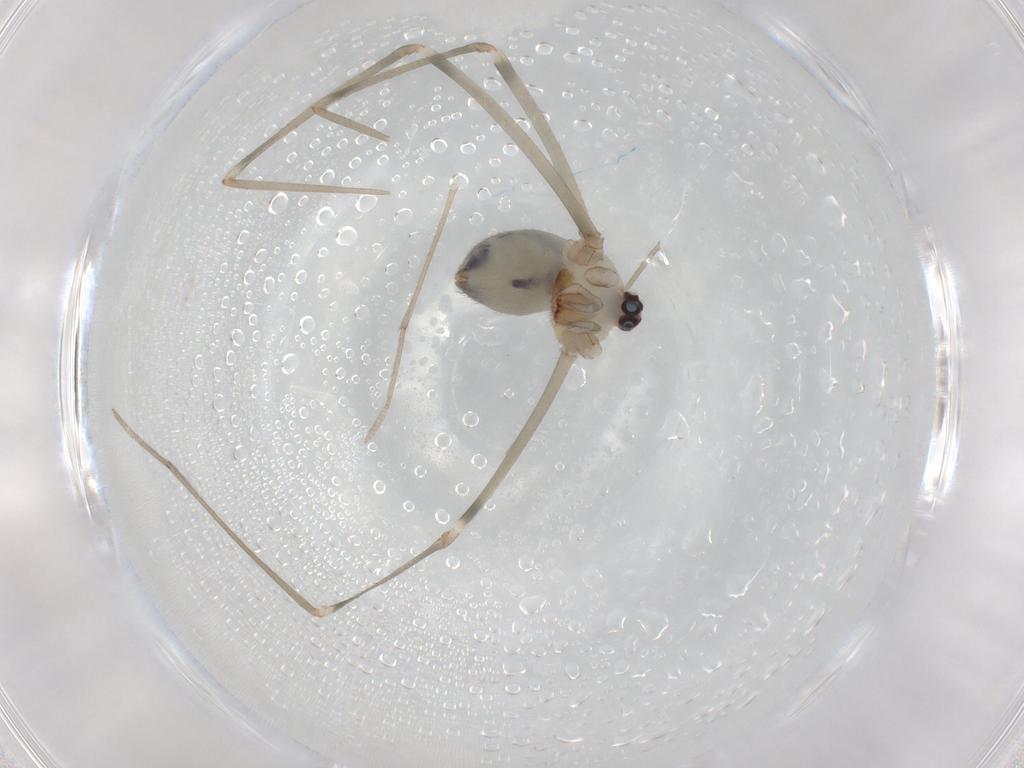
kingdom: Animalia
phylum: Arthropoda
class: Arachnida
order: Araneae
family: Pholcidae
